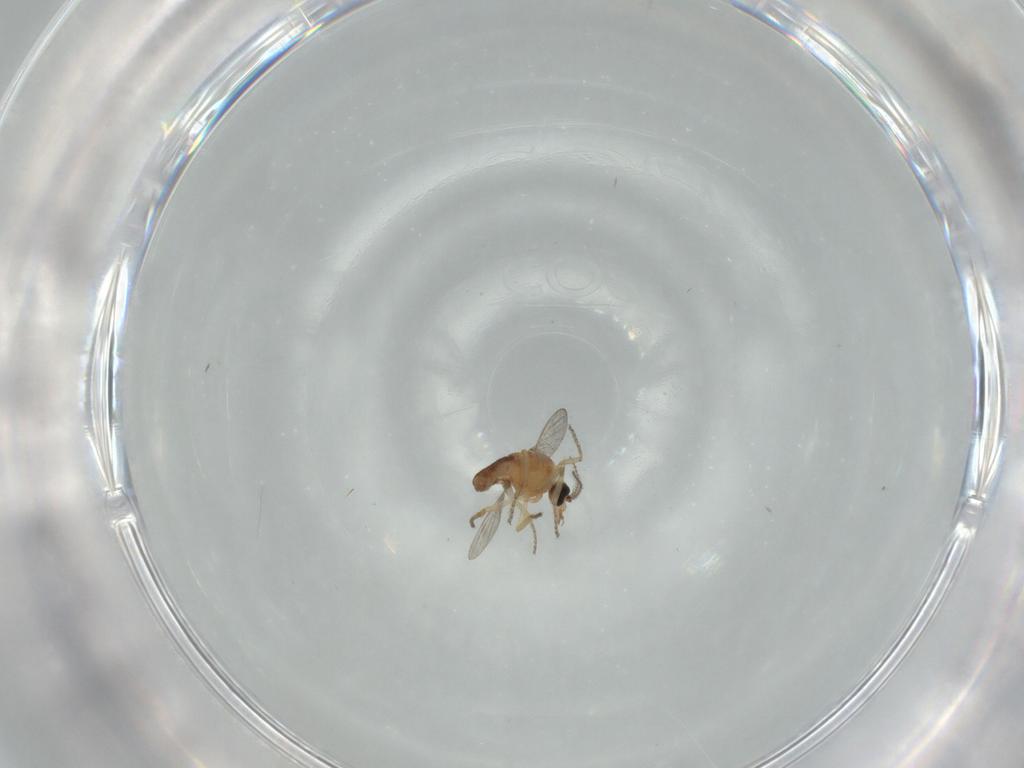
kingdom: Animalia
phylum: Arthropoda
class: Insecta
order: Diptera
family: Ceratopogonidae
